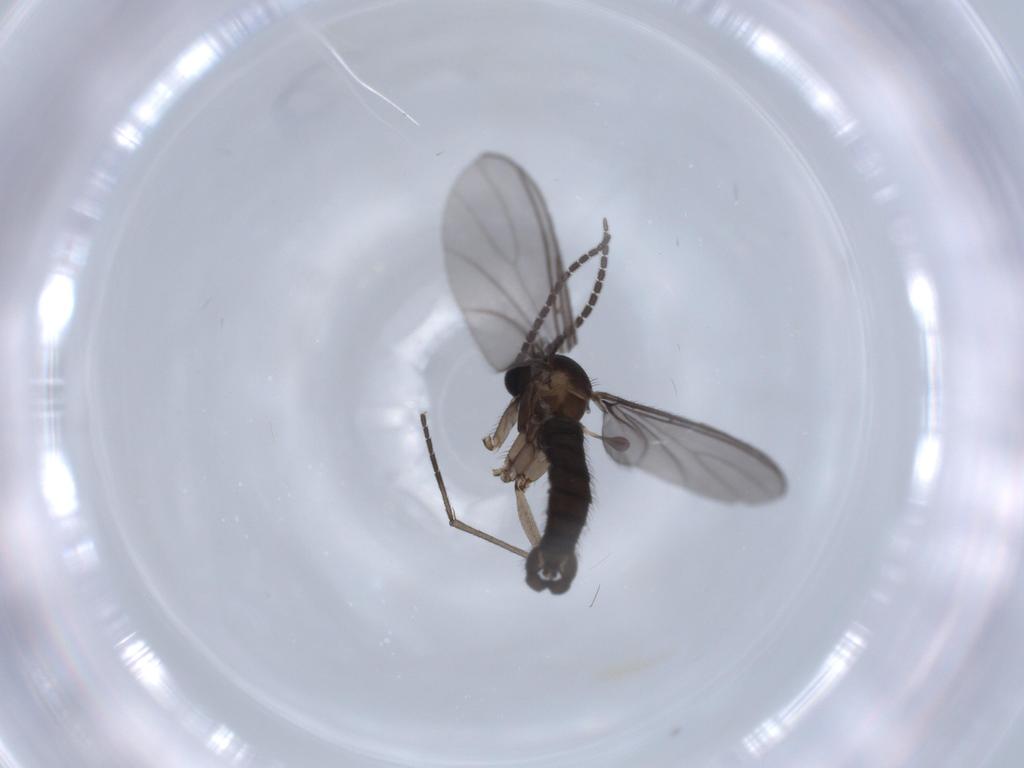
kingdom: Animalia
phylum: Arthropoda
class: Insecta
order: Diptera
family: Sciaridae
